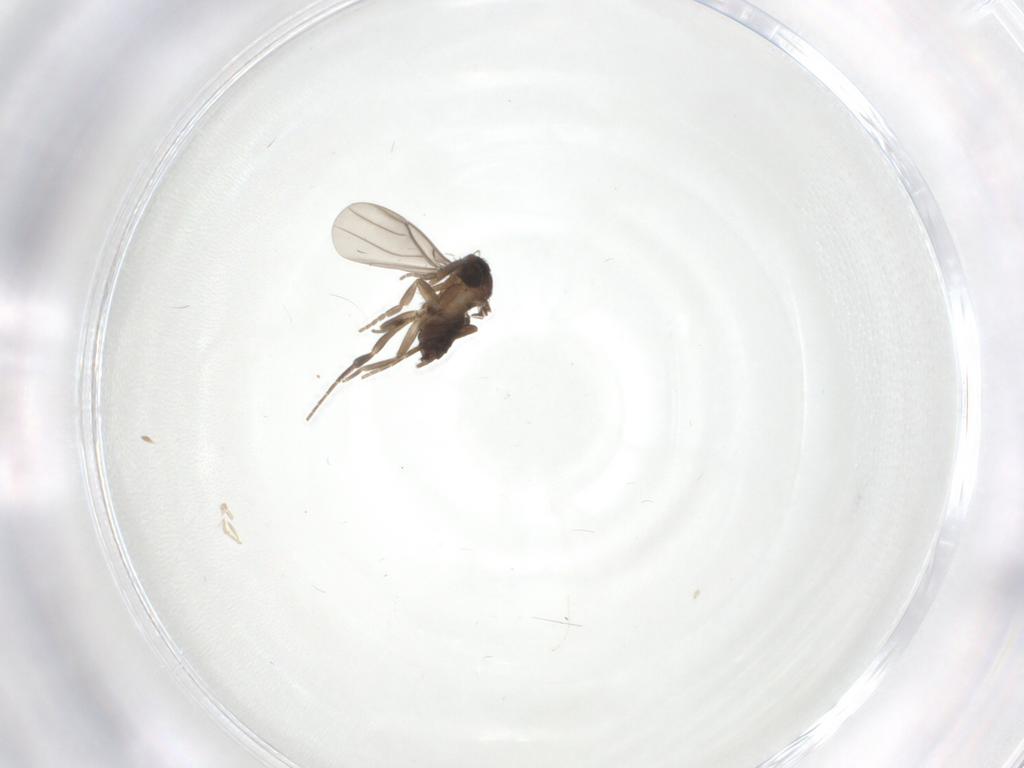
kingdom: Animalia
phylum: Arthropoda
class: Insecta
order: Diptera
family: Cecidomyiidae
